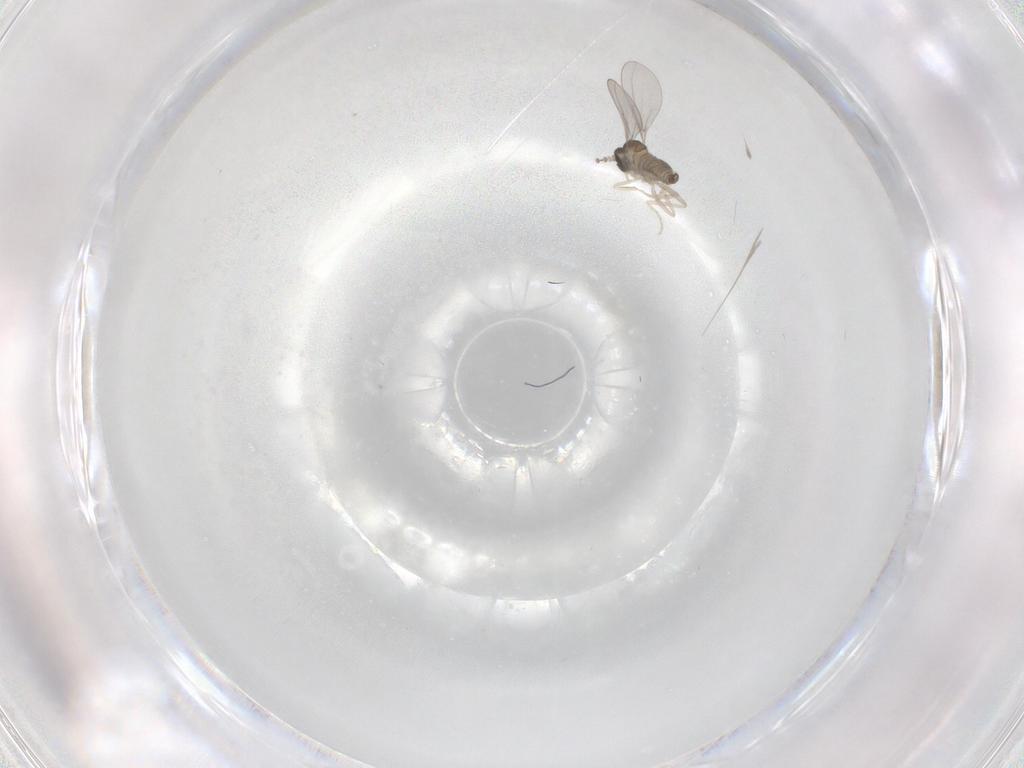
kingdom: Animalia
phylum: Arthropoda
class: Insecta
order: Diptera
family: Cecidomyiidae
